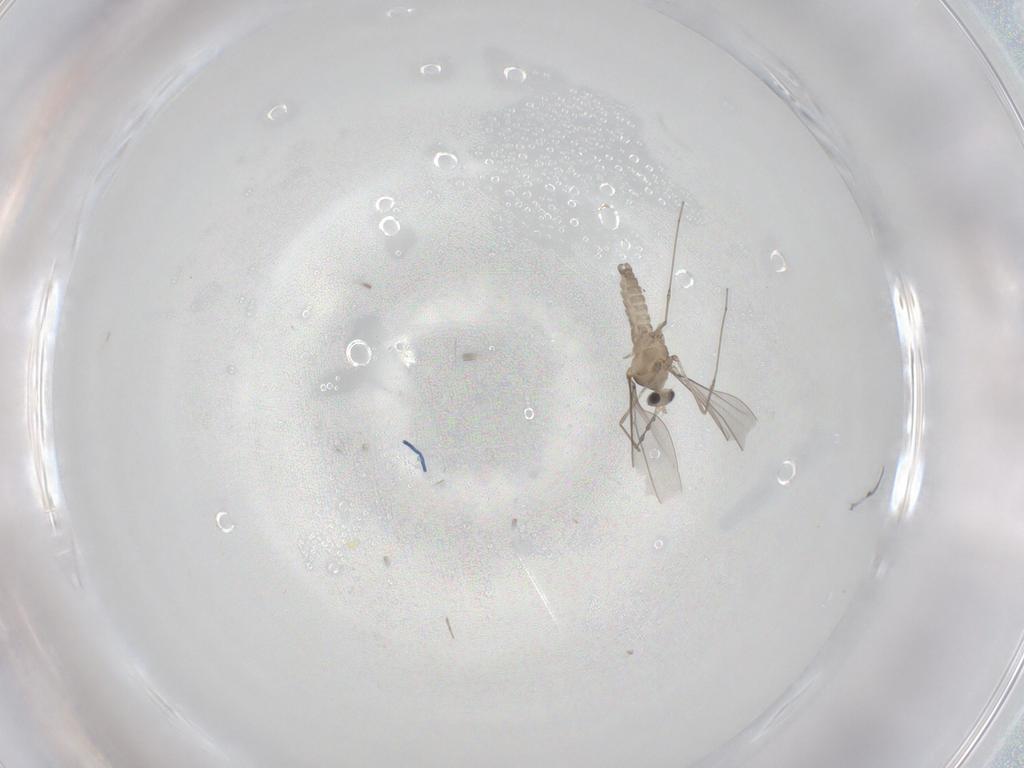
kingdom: Animalia
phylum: Arthropoda
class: Insecta
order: Diptera
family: Cecidomyiidae
